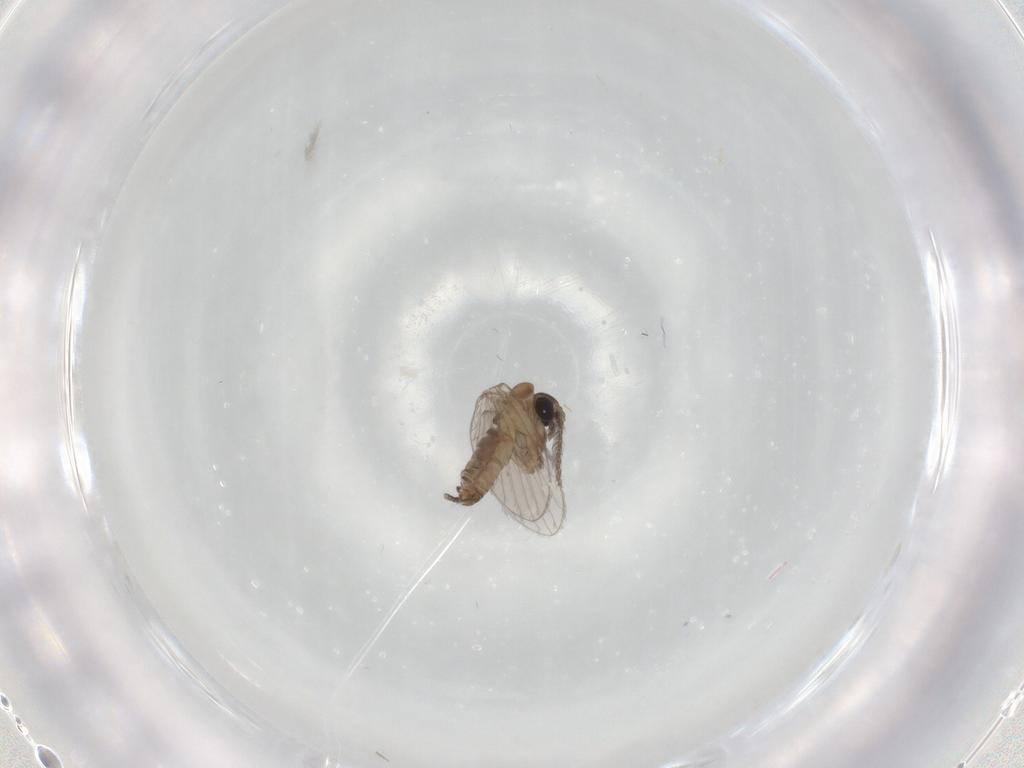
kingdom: Animalia
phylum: Arthropoda
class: Insecta
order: Diptera
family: Psychodidae
